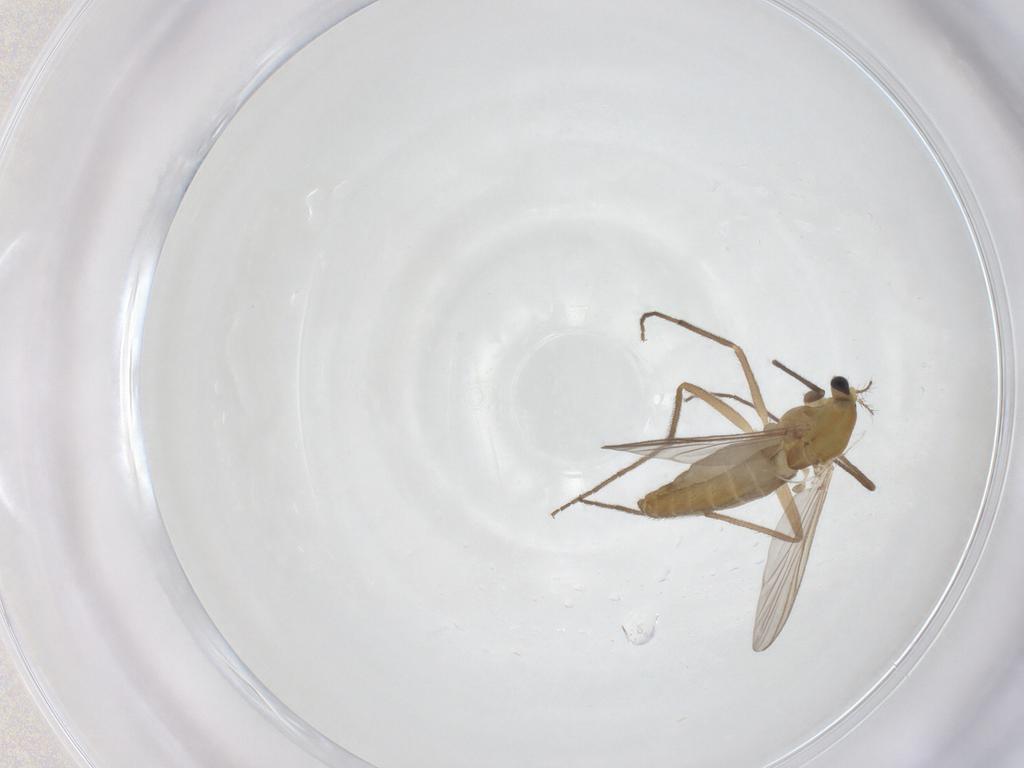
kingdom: Animalia
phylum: Arthropoda
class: Insecta
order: Diptera
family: Chironomidae
